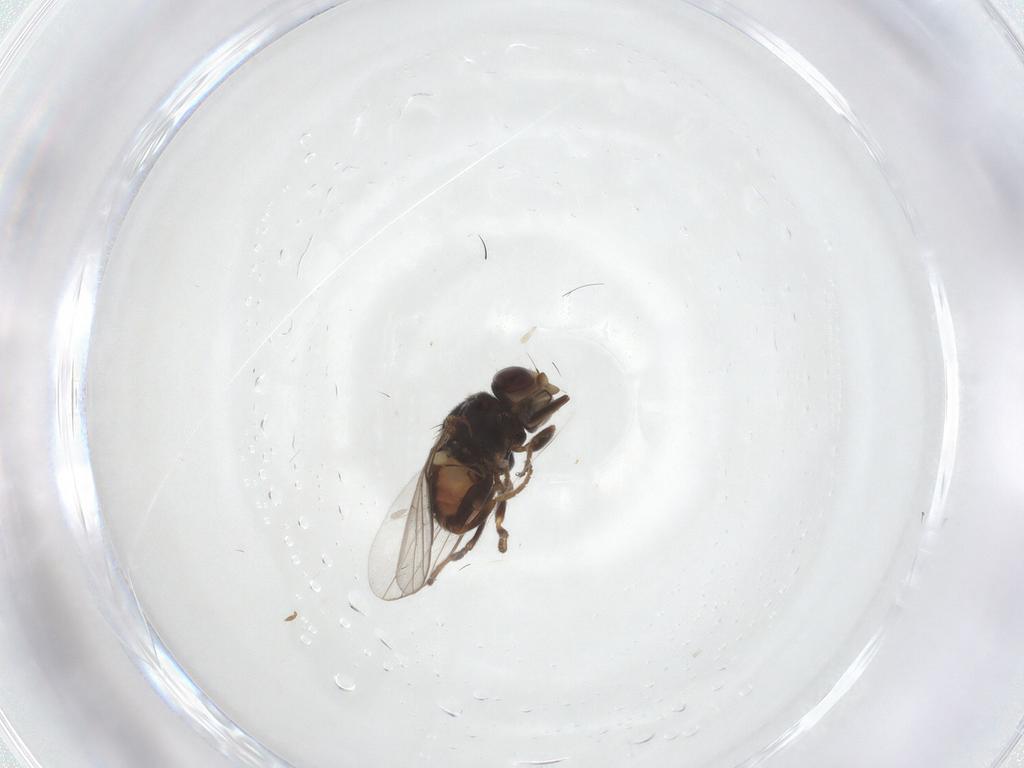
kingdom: Animalia
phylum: Arthropoda
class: Insecta
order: Diptera
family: Chloropidae
